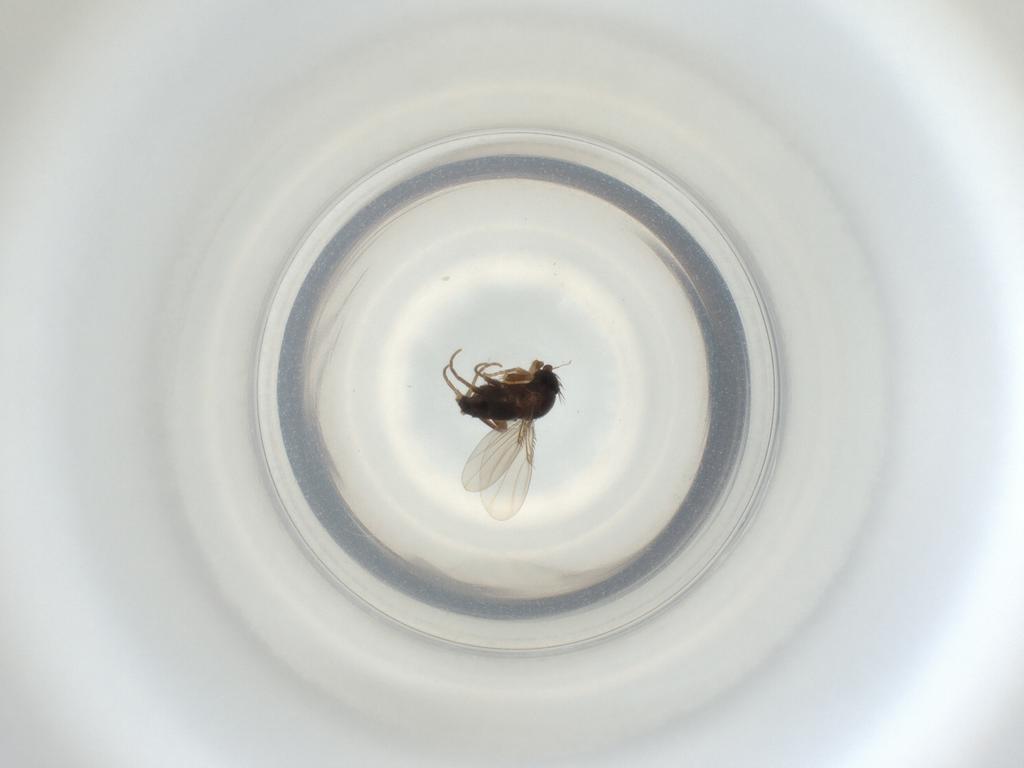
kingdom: Animalia
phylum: Arthropoda
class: Insecta
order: Diptera
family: Phoridae
